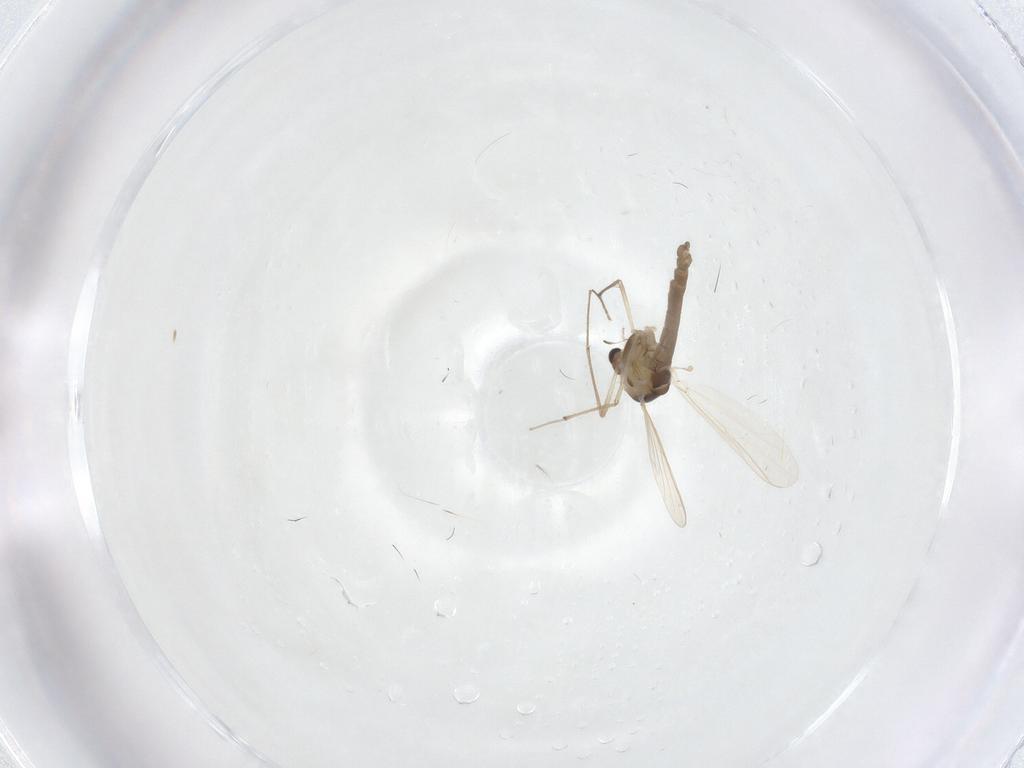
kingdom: Animalia
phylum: Arthropoda
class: Insecta
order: Diptera
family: Chironomidae
